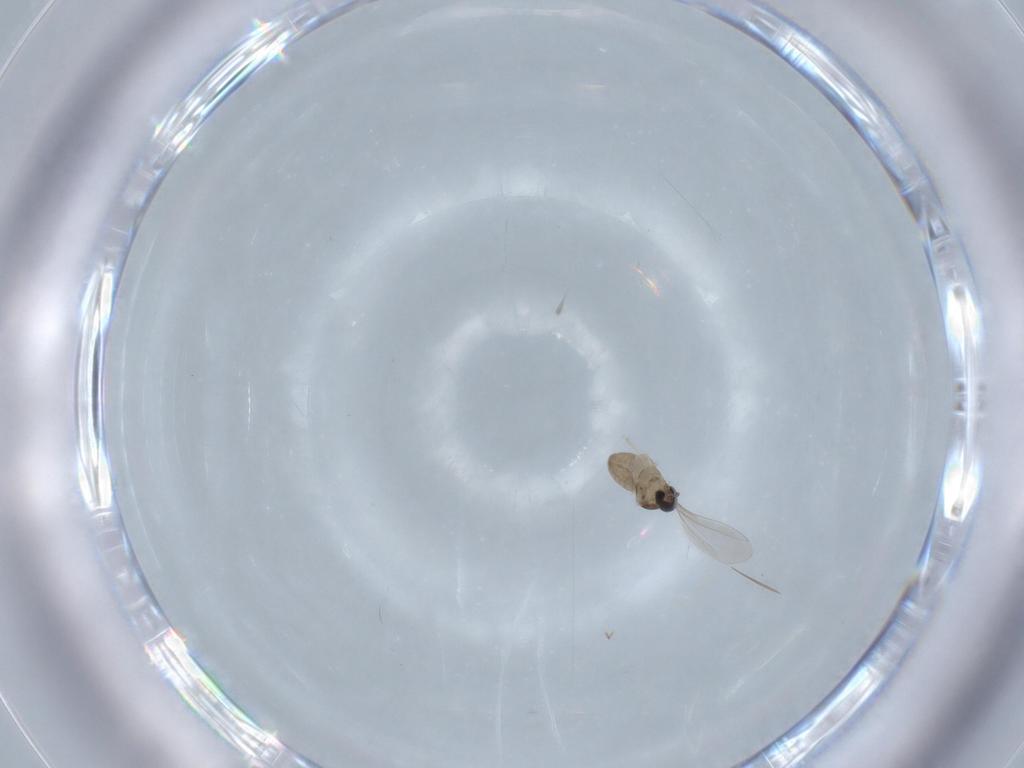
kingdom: Animalia
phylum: Arthropoda
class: Insecta
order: Diptera
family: Cecidomyiidae
